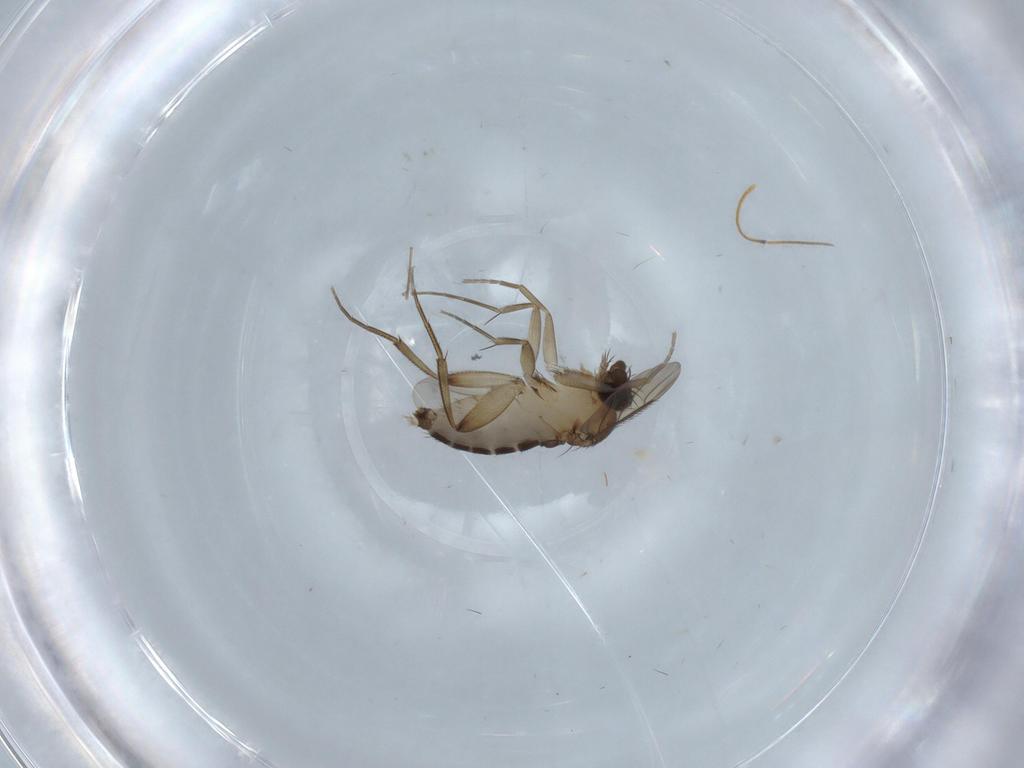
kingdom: Animalia
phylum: Arthropoda
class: Insecta
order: Diptera
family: Phoridae
